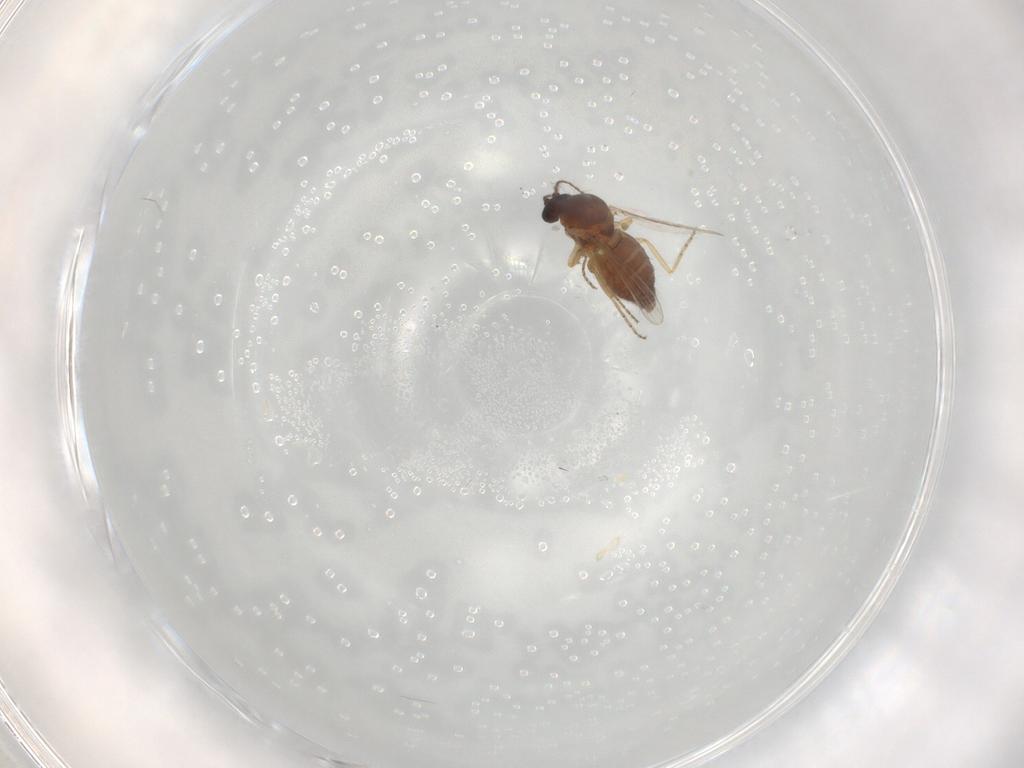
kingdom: Animalia
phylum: Arthropoda
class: Insecta
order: Diptera
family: Ceratopogonidae
